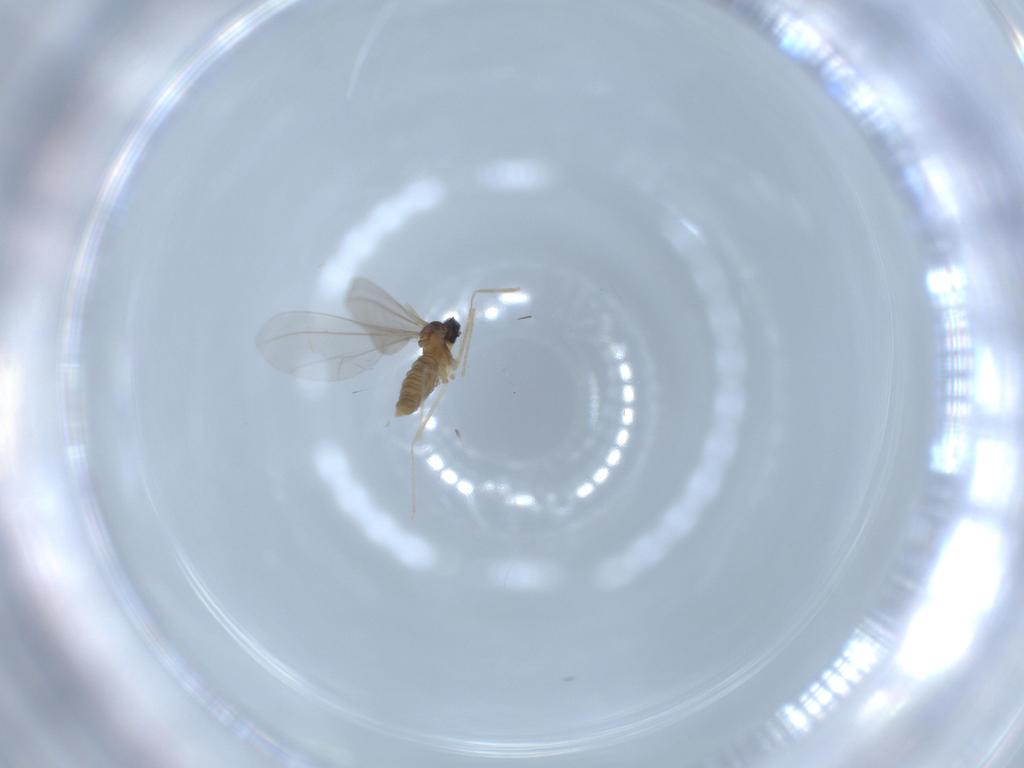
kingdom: Animalia
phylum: Arthropoda
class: Insecta
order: Diptera
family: Cecidomyiidae
